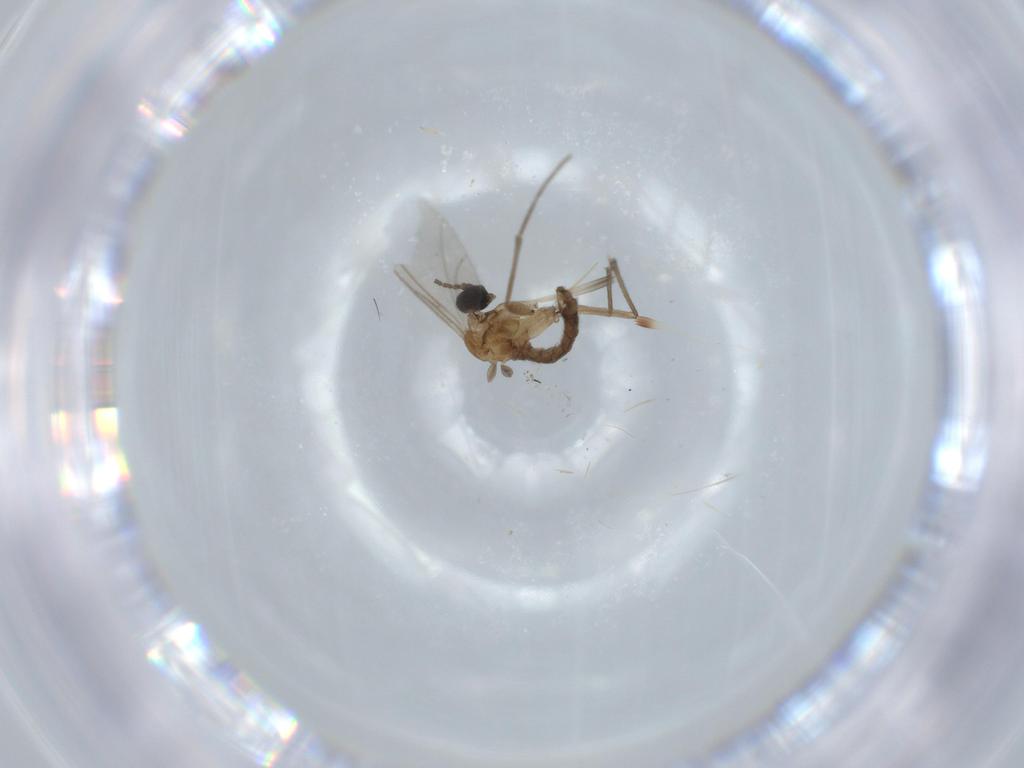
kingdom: Animalia
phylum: Arthropoda
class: Insecta
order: Diptera
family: Sciaridae
